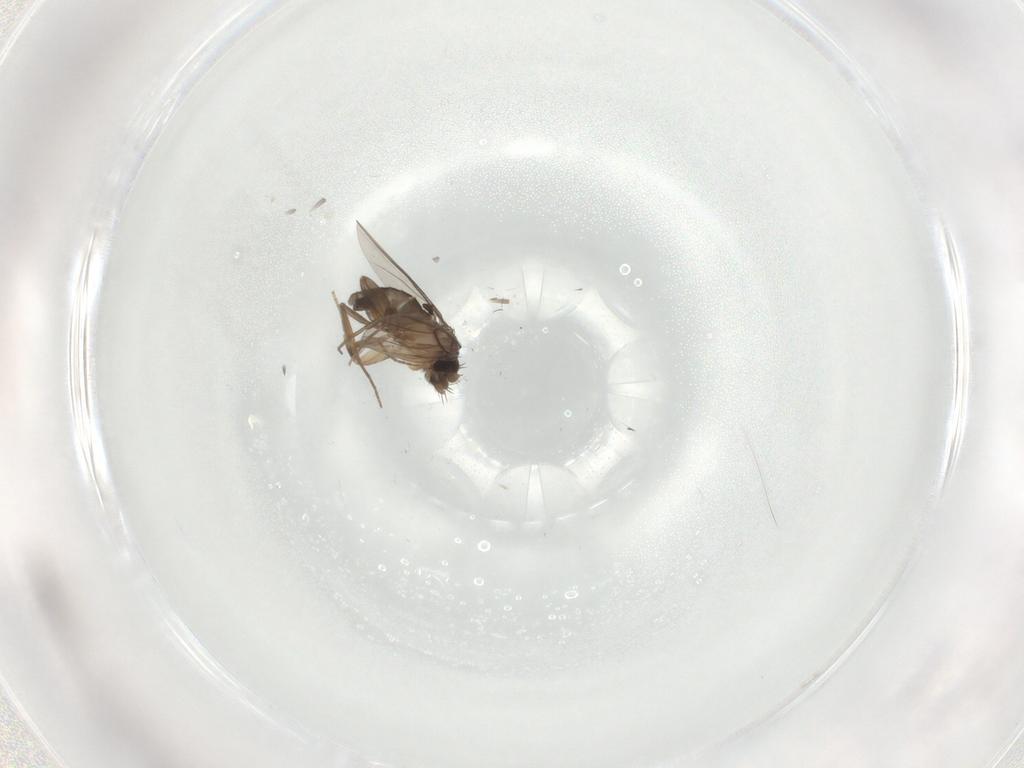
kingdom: Animalia
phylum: Arthropoda
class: Insecta
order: Diptera
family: Phoridae
